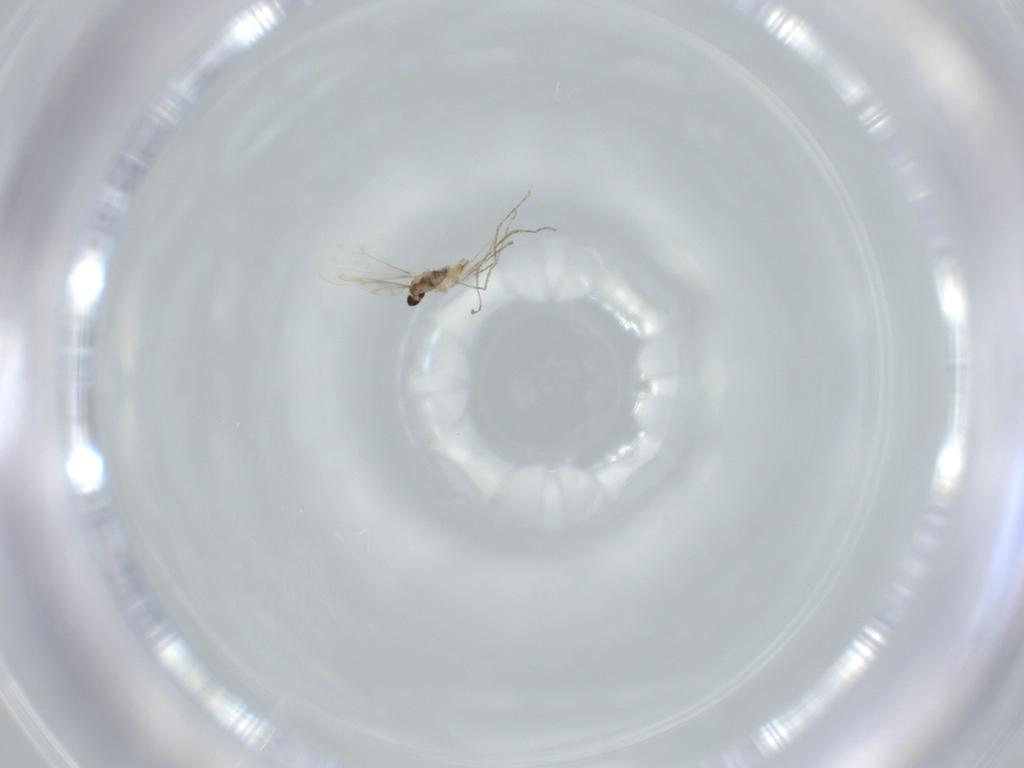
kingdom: Animalia
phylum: Arthropoda
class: Insecta
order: Diptera
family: Cecidomyiidae
